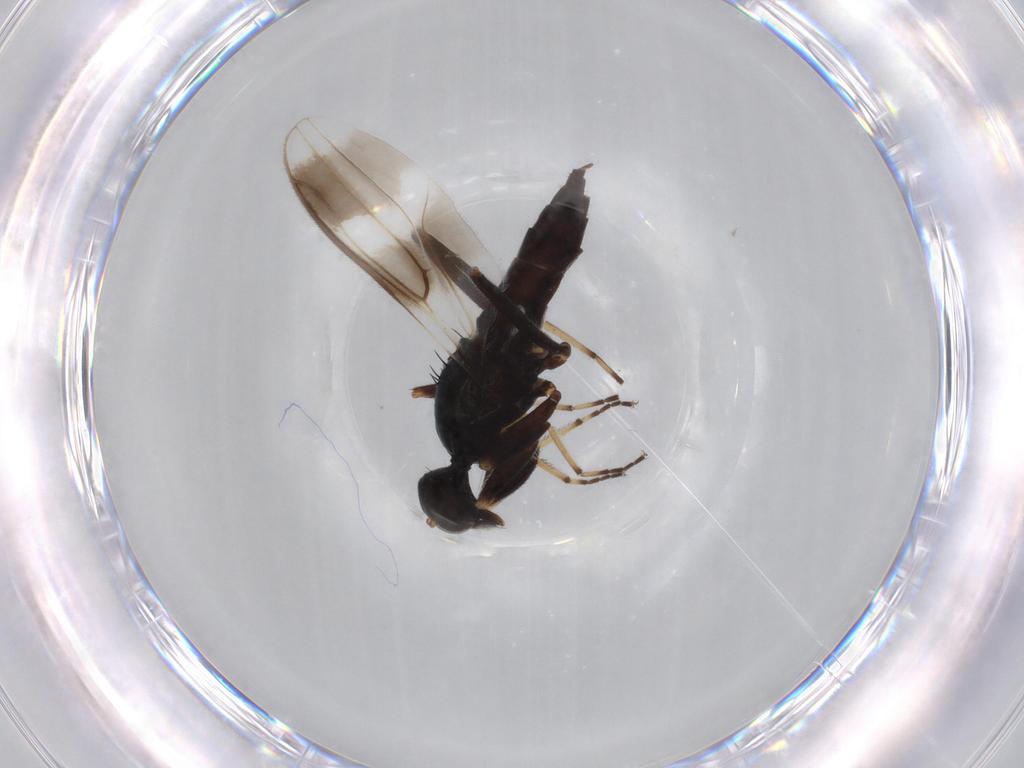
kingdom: Animalia
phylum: Arthropoda
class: Insecta
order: Diptera
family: Hybotidae
